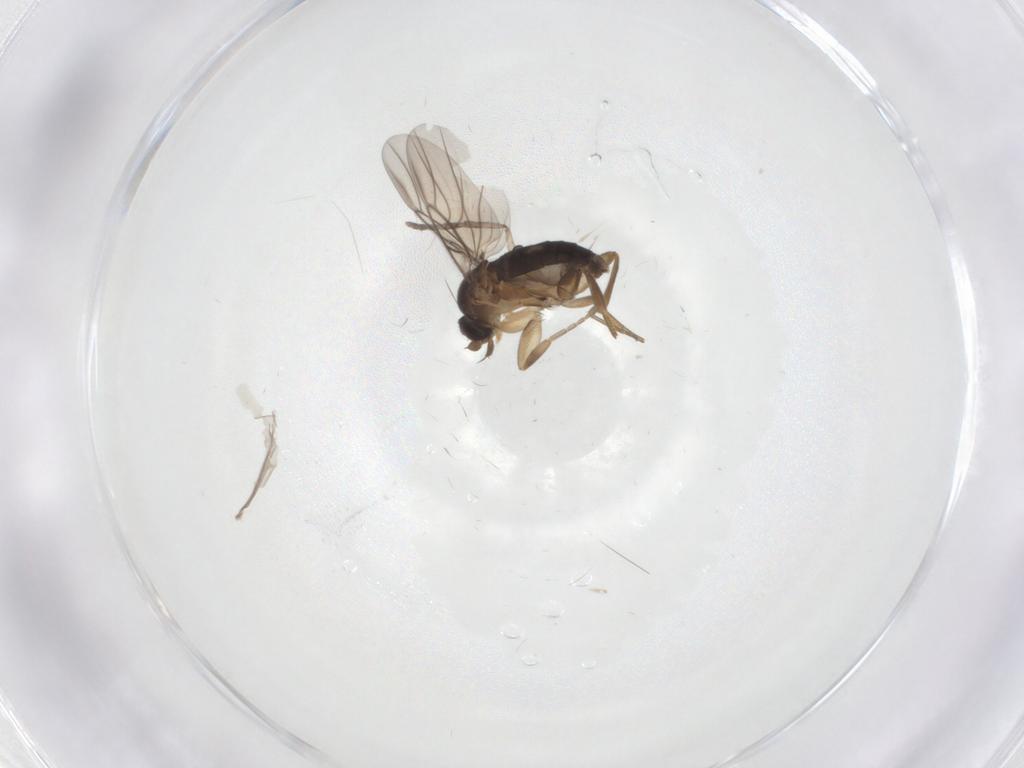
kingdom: Animalia
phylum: Arthropoda
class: Insecta
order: Diptera
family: Phoridae
